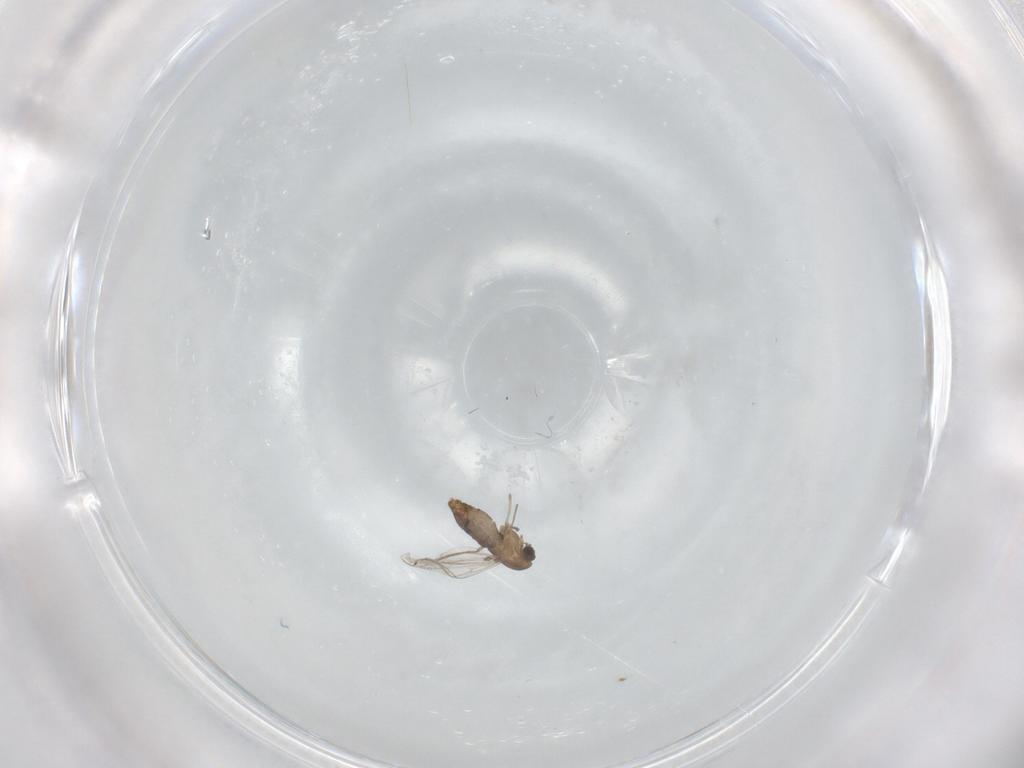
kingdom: Animalia
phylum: Arthropoda
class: Insecta
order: Diptera
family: Chironomidae
